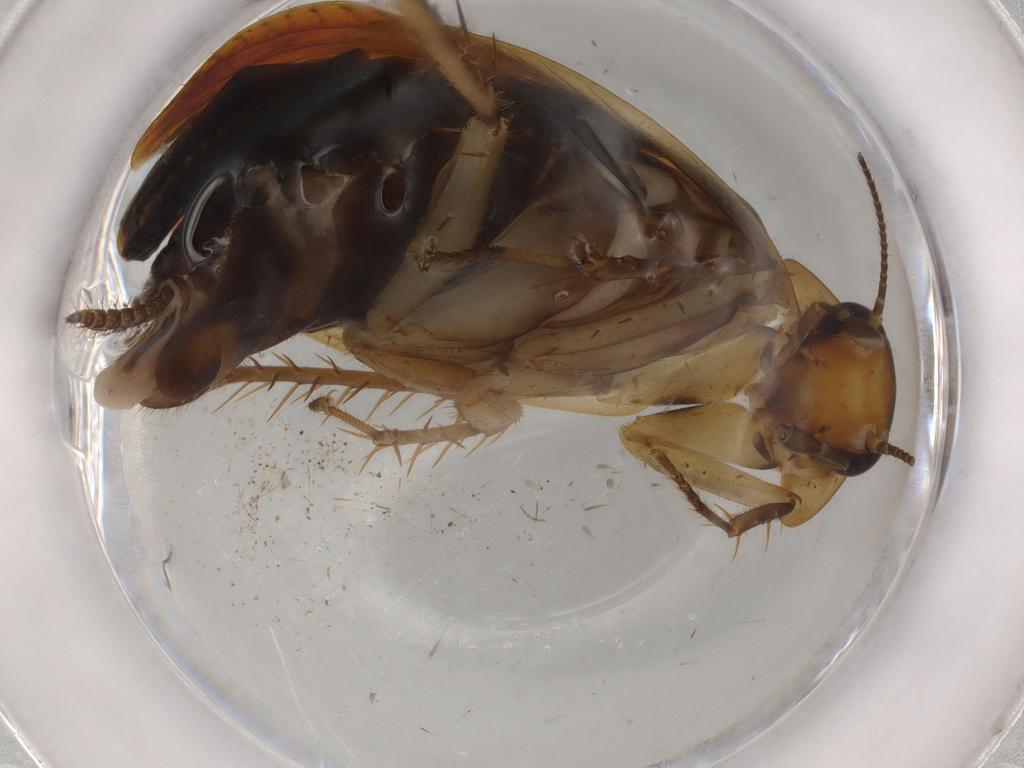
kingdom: Animalia
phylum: Arthropoda
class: Insecta
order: Blattodea
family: Ectobiidae
